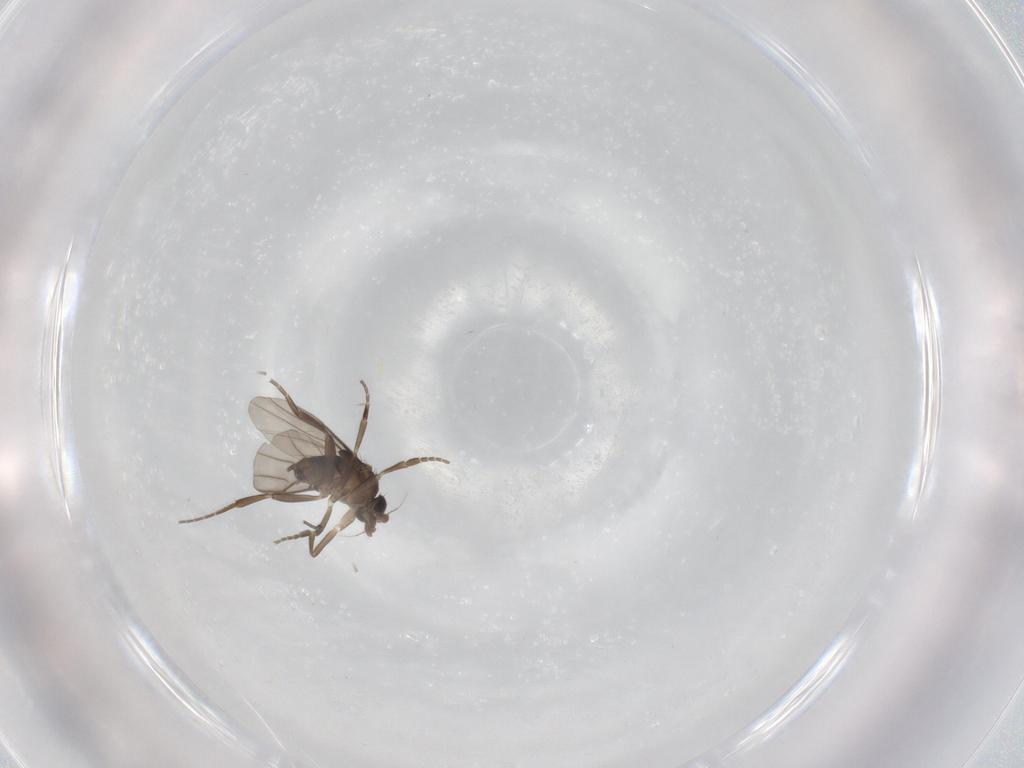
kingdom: Animalia
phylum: Arthropoda
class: Insecta
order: Diptera
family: Phoridae
